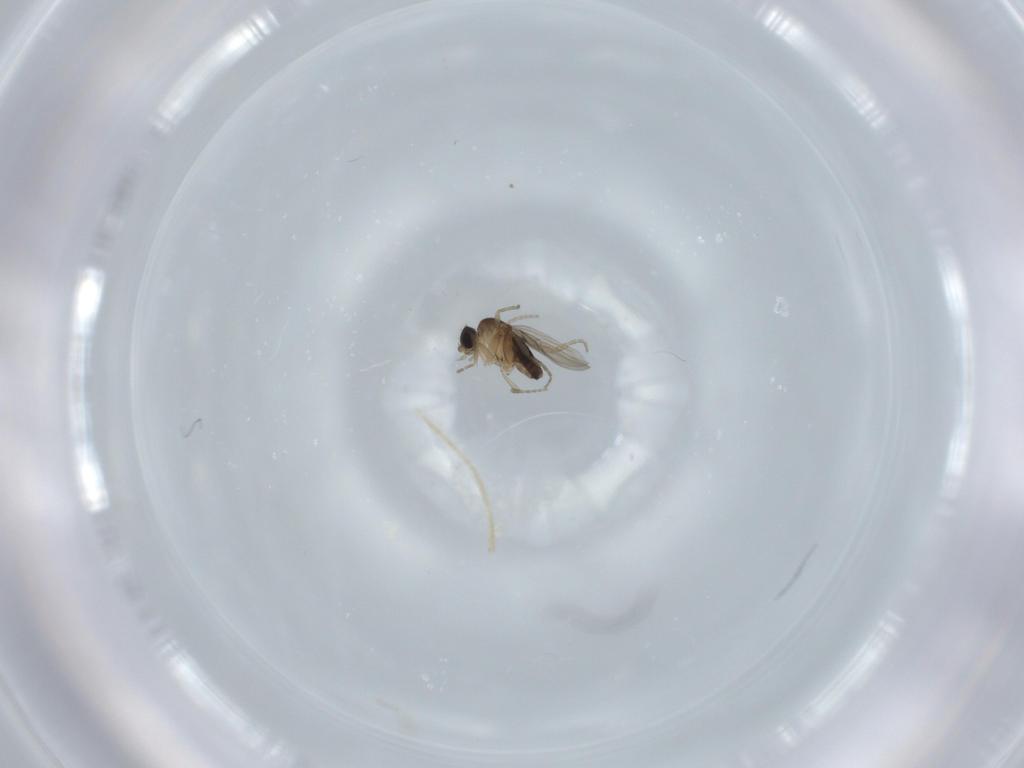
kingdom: Animalia
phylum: Arthropoda
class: Insecta
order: Diptera
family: Phoridae
